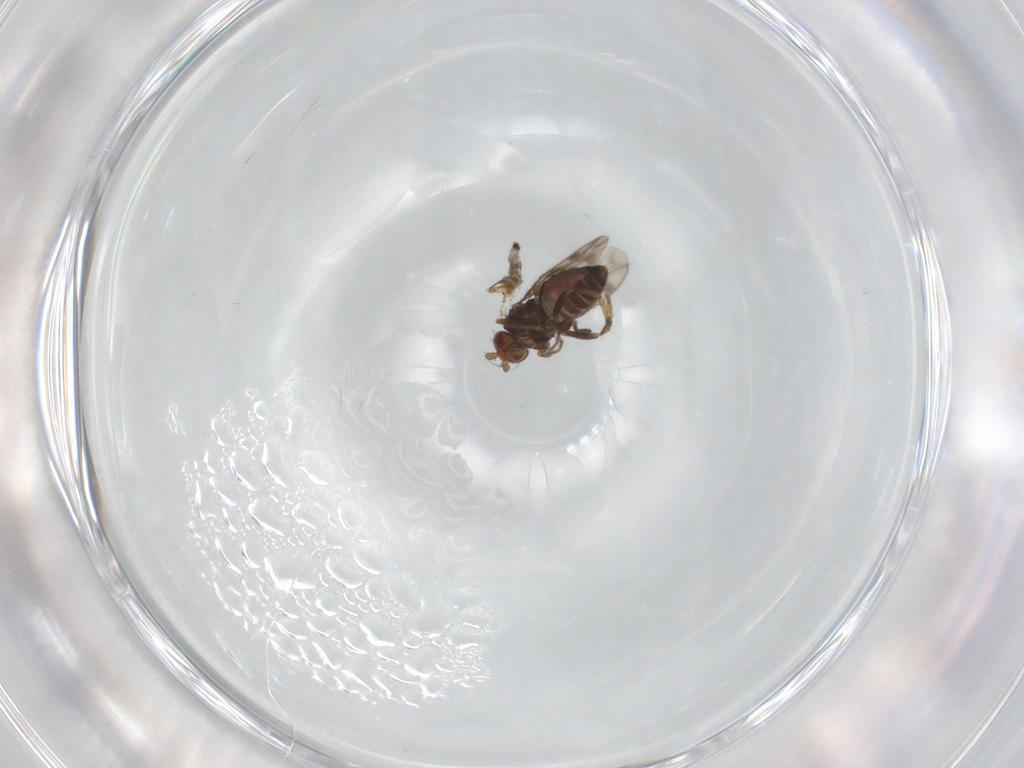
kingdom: Animalia
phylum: Arthropoda
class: Insecta
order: Diptera
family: Sphaeroceridae
